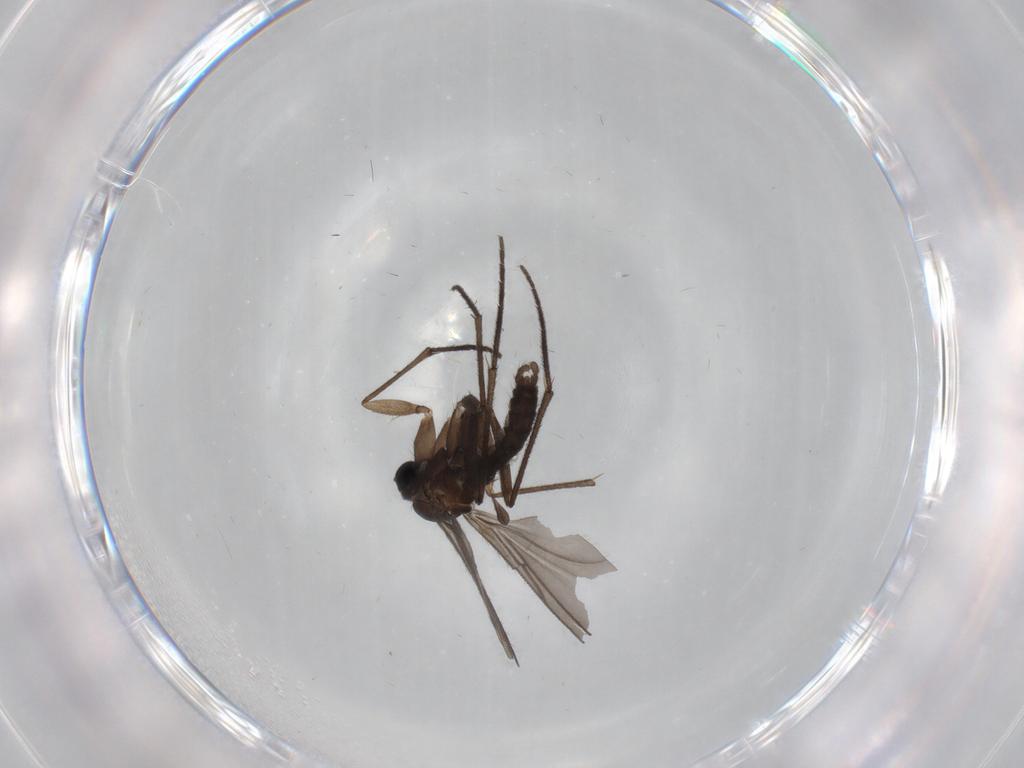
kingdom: Animalia
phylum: Arthropoda
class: Insecta
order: Diptera
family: Sciaridae
